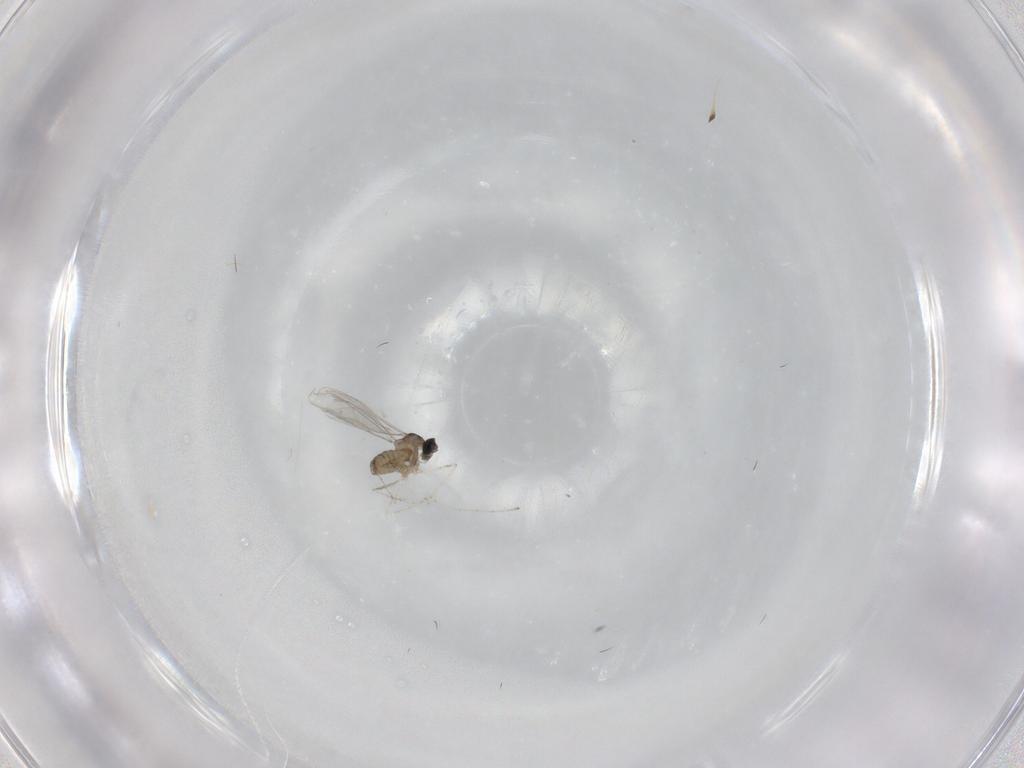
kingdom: Animalia
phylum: Arthropoda
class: Insecta
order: Diptera
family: Cecidomyiidae
